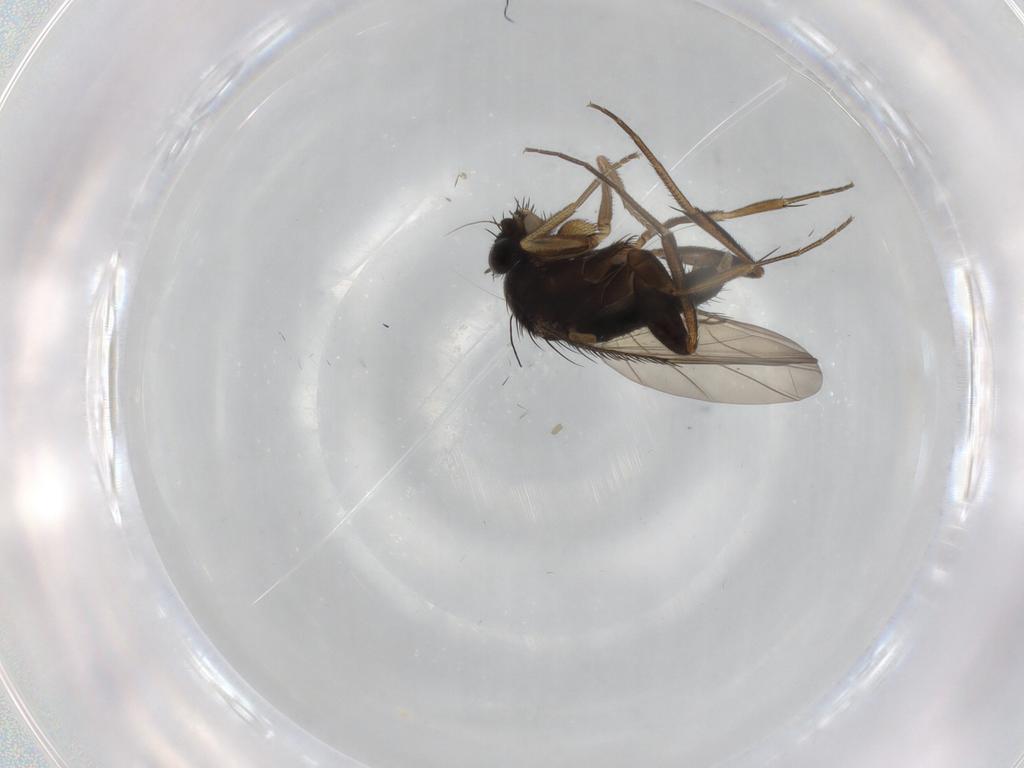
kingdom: Animalia
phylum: Arthropoda
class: Insecta
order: Diptera
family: Phoridae
